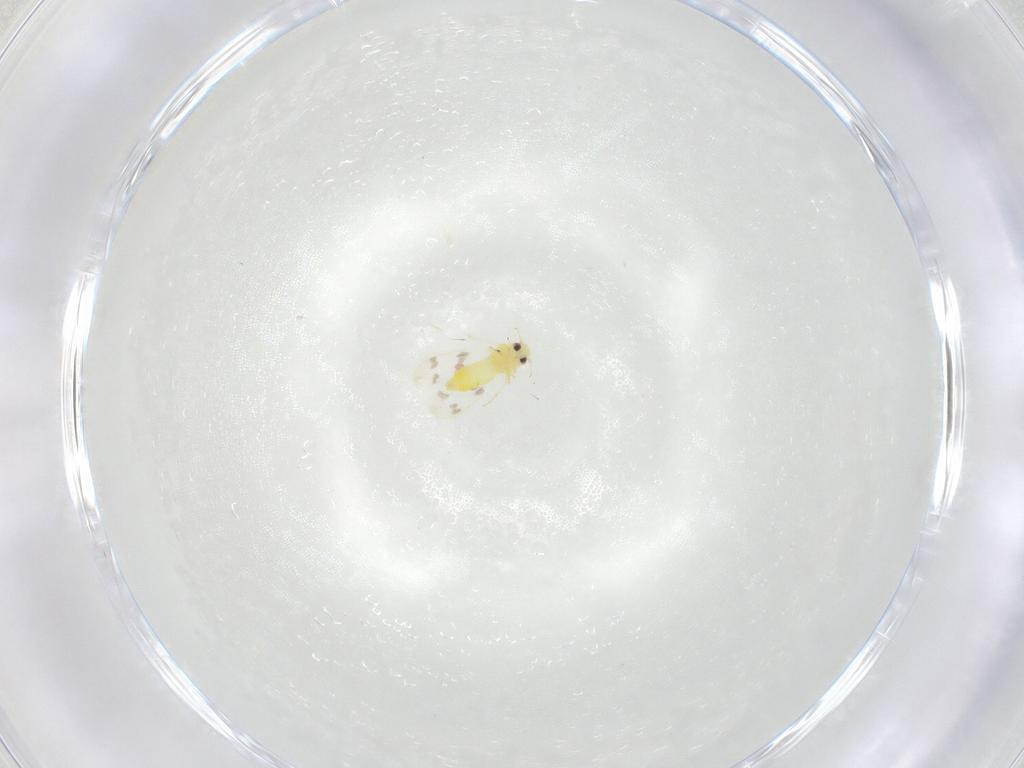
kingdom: Animalia
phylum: Arthropoda
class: Insecta
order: Hemiptera
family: Aleyrodidae
